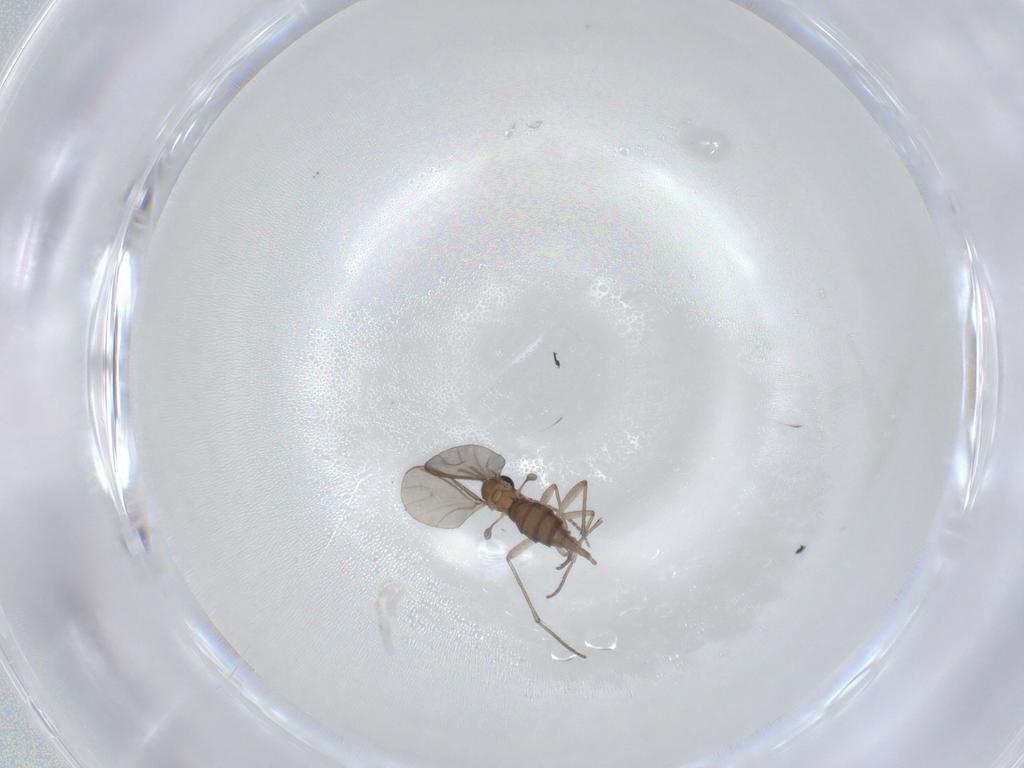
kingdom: Animalia
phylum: Arthropoda
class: Insecta
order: Diptera
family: Sciaridae
